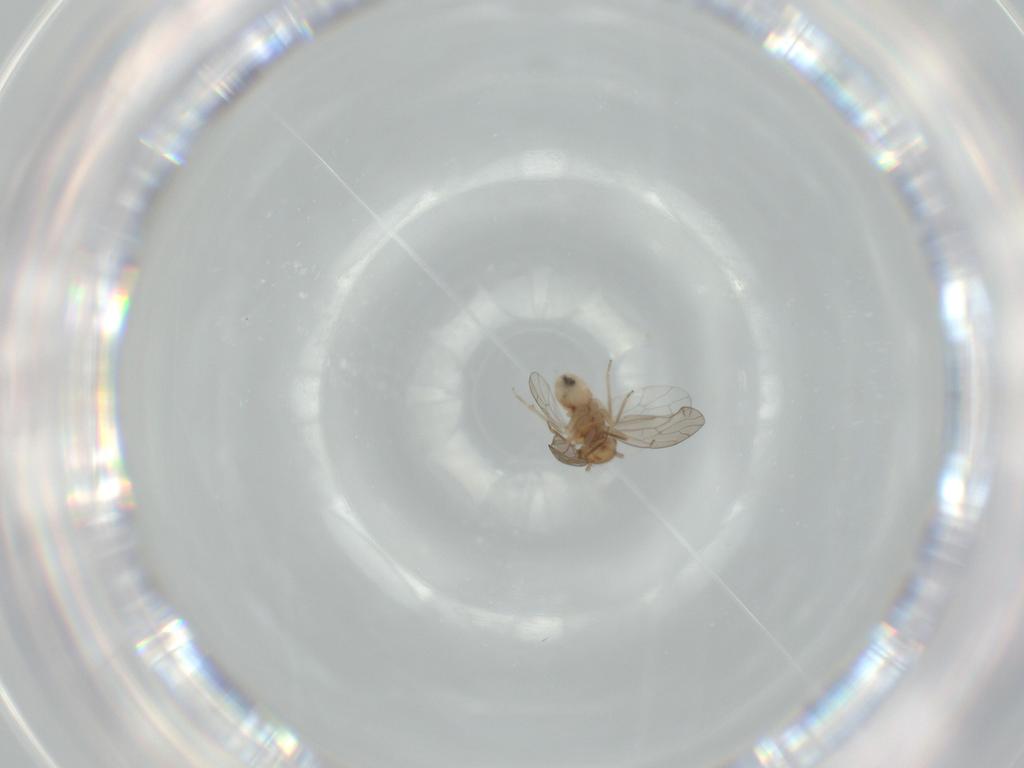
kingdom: Animalia
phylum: Arthropoda
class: Insecta
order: Psocodea
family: Ectopsocidae
